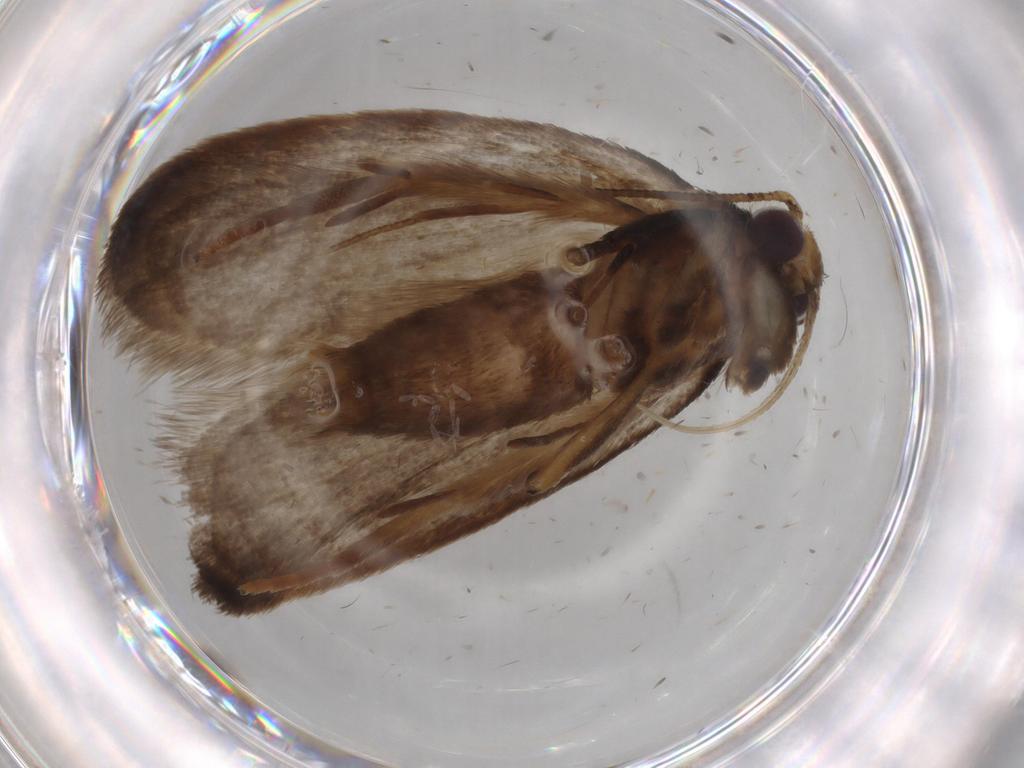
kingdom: Animalia
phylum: Arthropoda
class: Insecta
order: Lepidoptera
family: Oecophoridae
